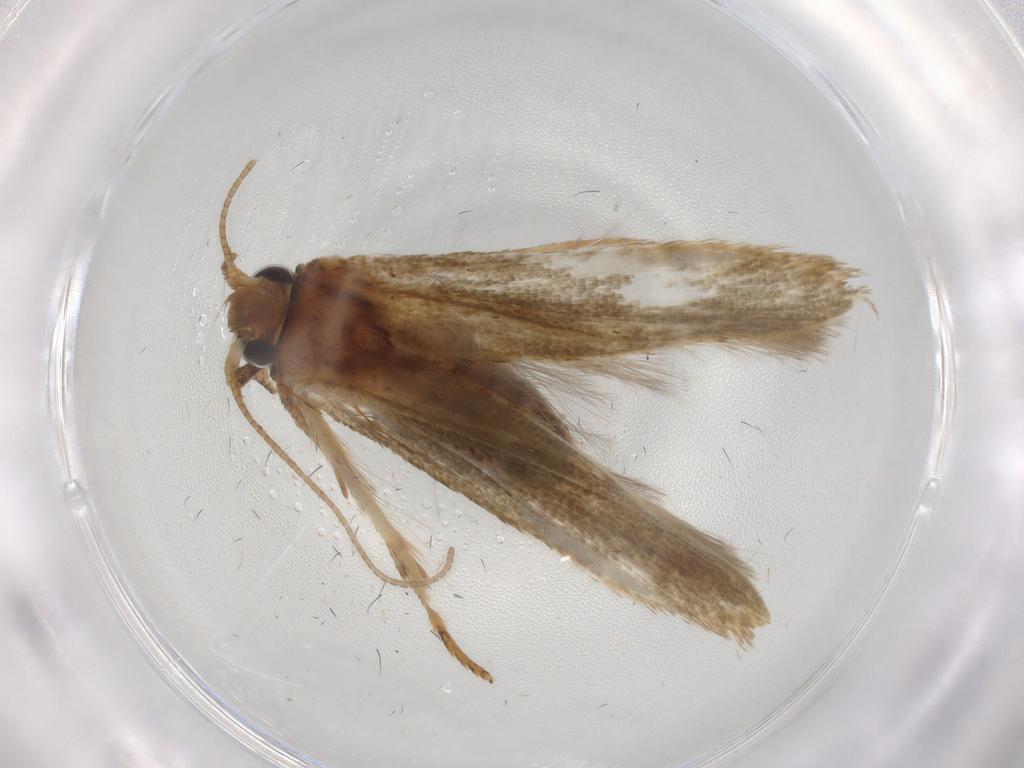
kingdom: Animalia
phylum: Arthropoda
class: Insecta
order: Lepidoptera
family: Blastobasidae
